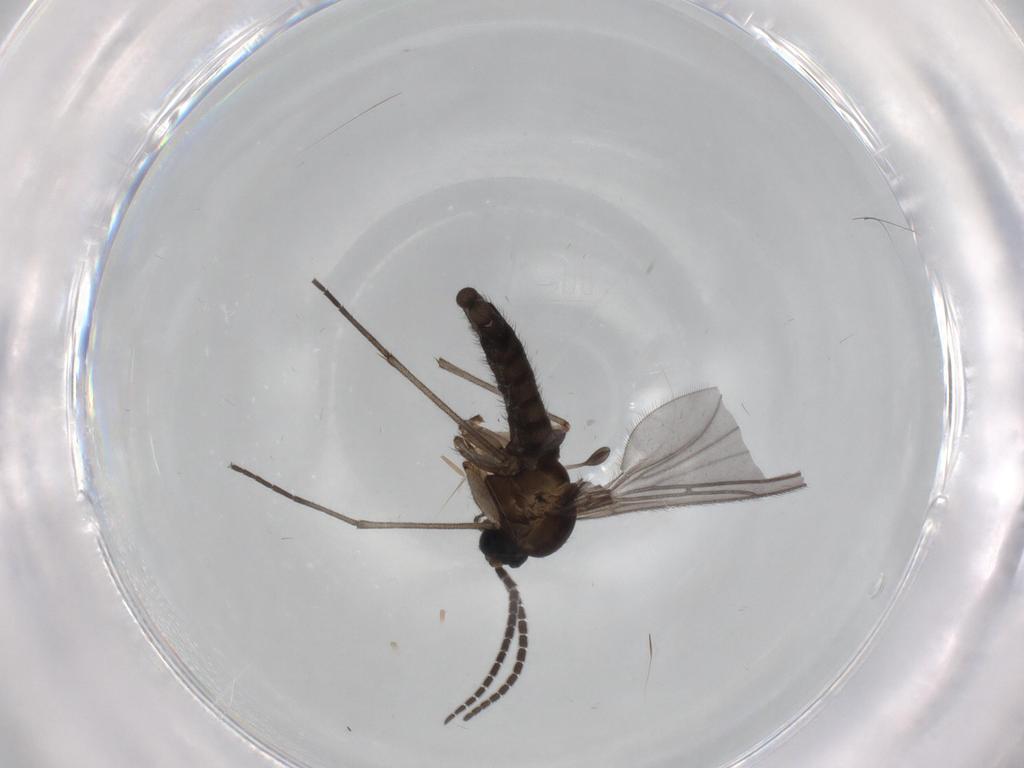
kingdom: Animalia
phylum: Arthropoda
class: Insecta
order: Diptera
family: Sciaridae
